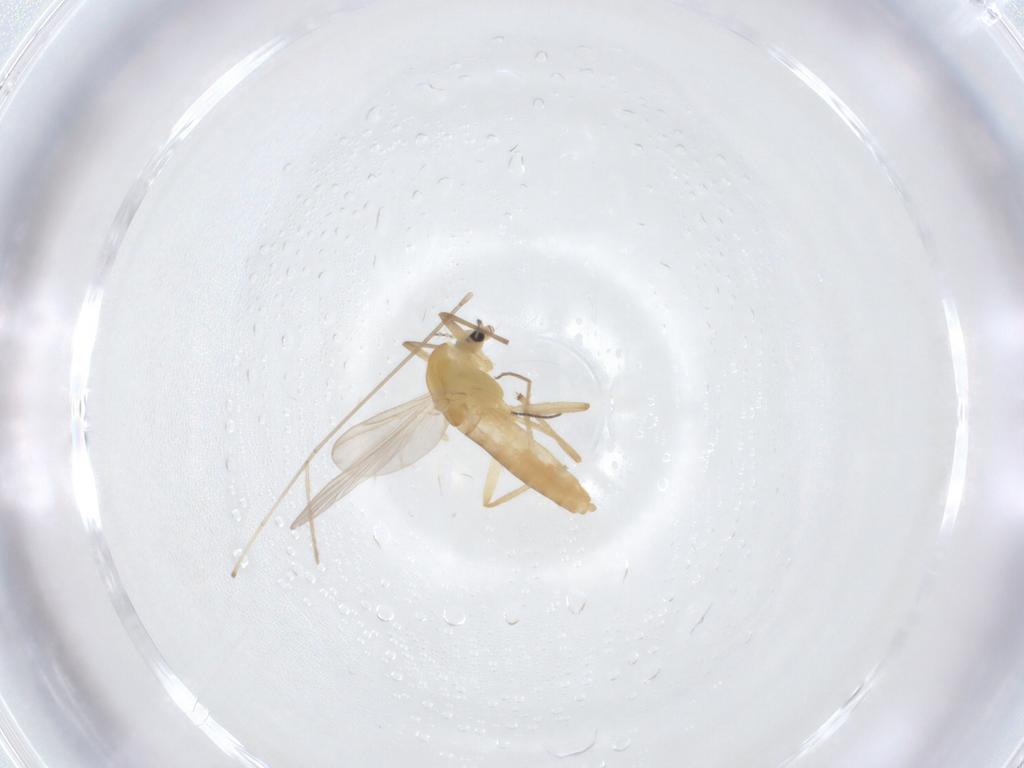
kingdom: Animalia
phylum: Arthropoda
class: Insecta
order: Diptera
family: Chironomidae
